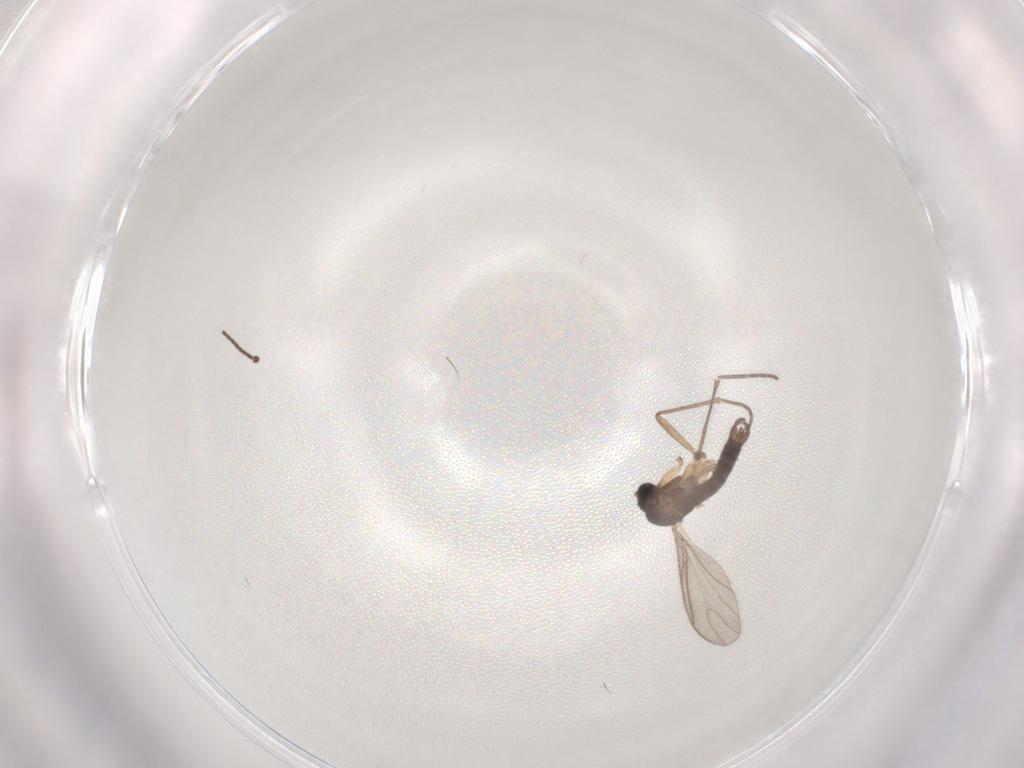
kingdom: Animalia
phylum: Arthropoda
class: Insecta
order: Diptera
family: Sciaridae
